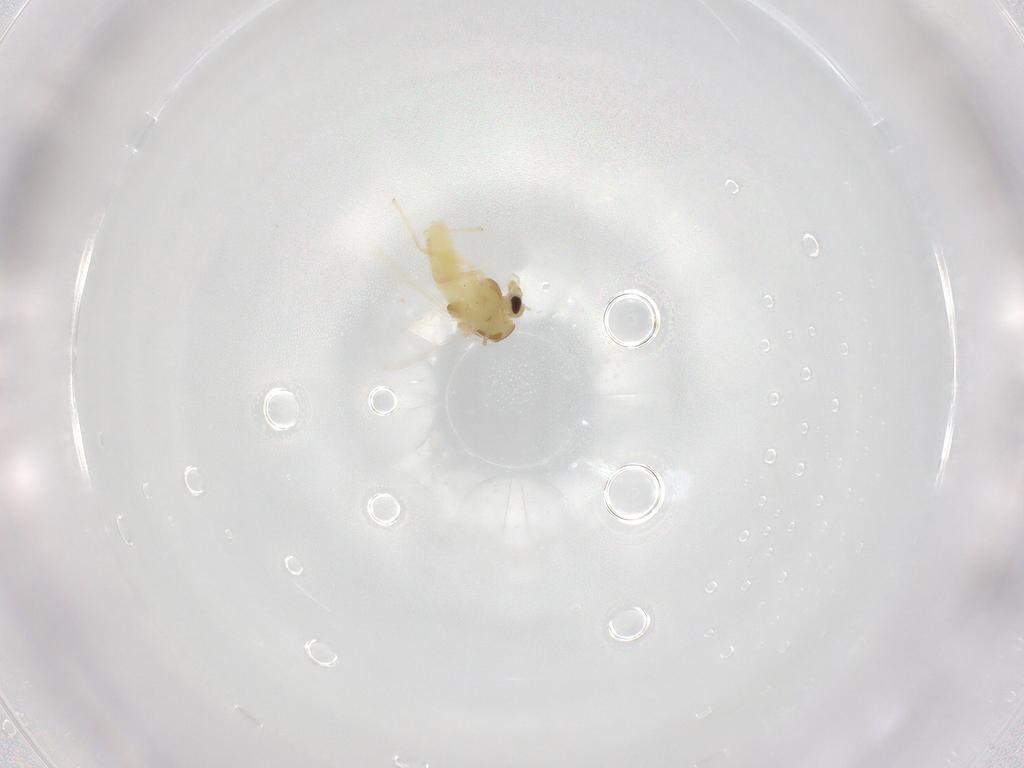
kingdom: Animalia
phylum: Arthropoda
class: Insecta
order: Diptera
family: Chironomidae
